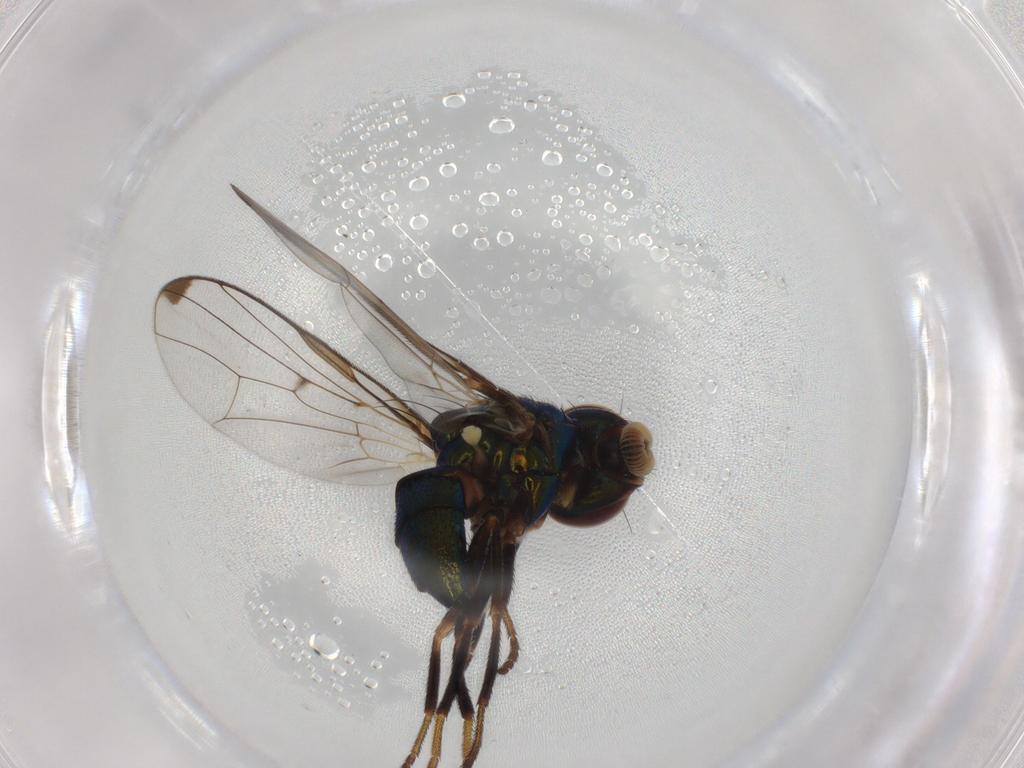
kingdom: Animalia
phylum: Arthropoda
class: Insecta
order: Diptera
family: Platystomatidae
